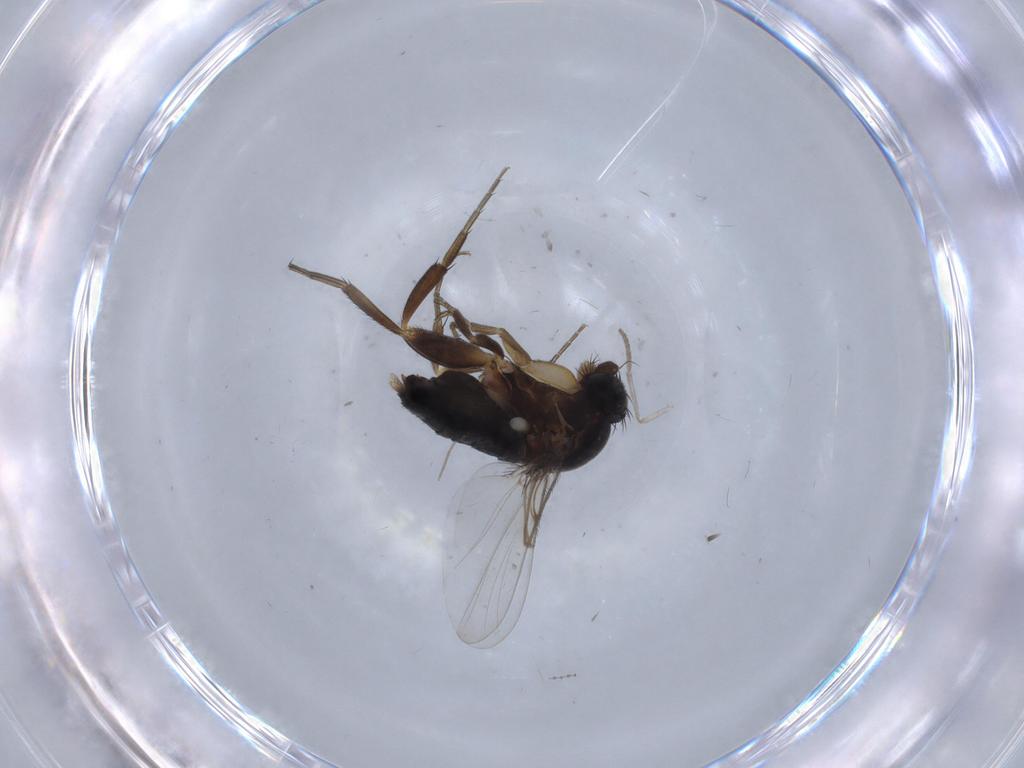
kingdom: Animalia
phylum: Arthropoda
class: Insecta
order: Diptera
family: Phoridae
